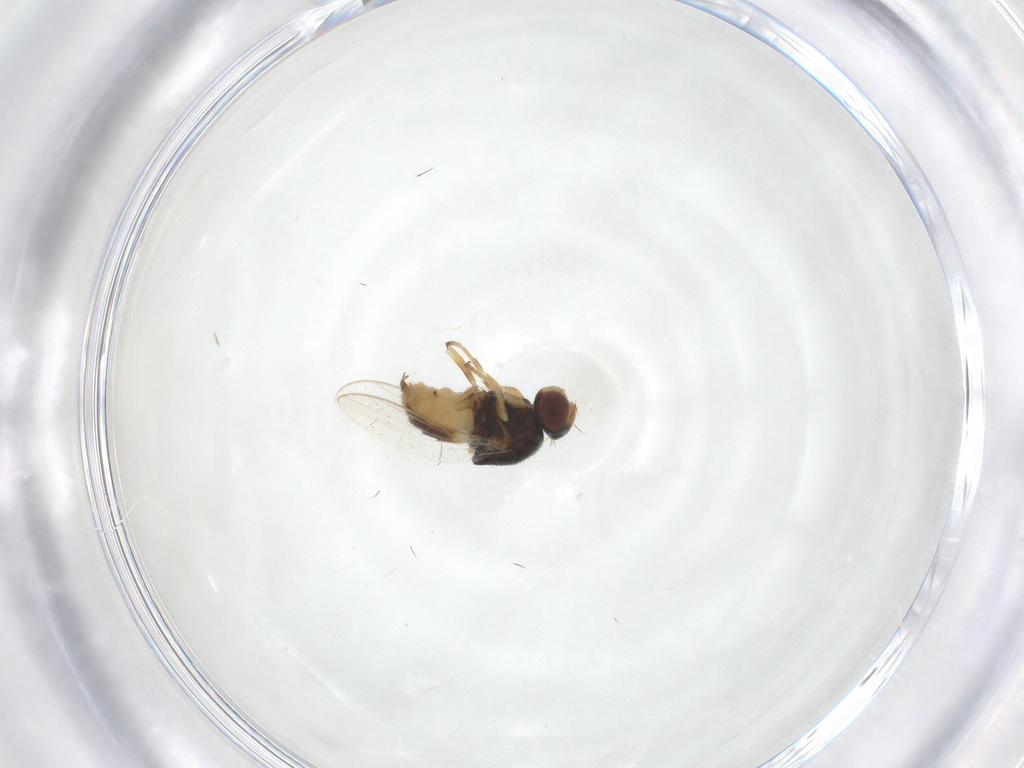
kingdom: Animalia
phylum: Arthropoda
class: Insecta
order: Diptera
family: Chloropidae
